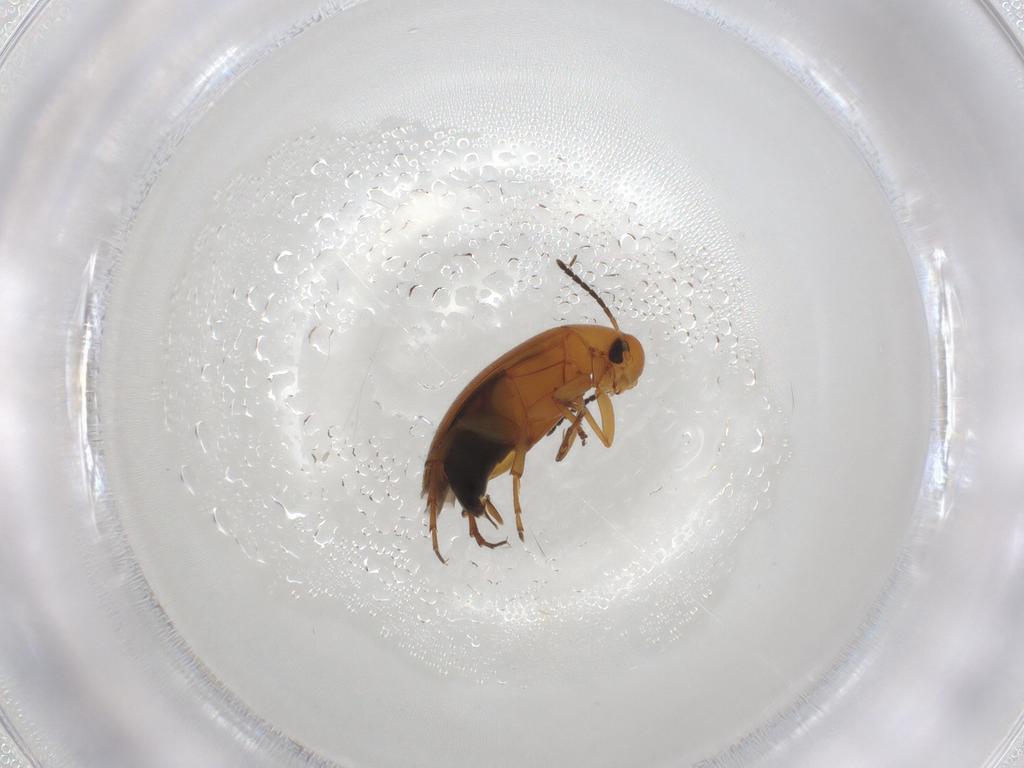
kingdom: Animalia
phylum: Arthropoda
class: Insecta
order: Coleoptera
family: Scraptiidae
